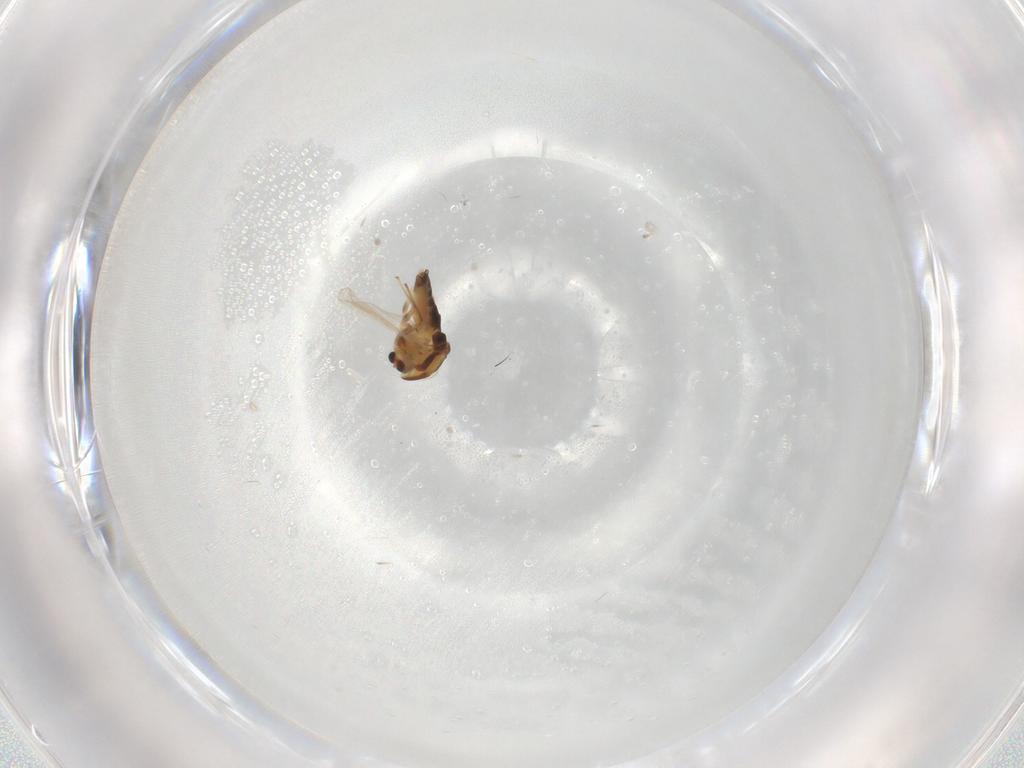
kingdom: Animalia
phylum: Arthropoda
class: Insecta
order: Diptera
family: Chironomidae
